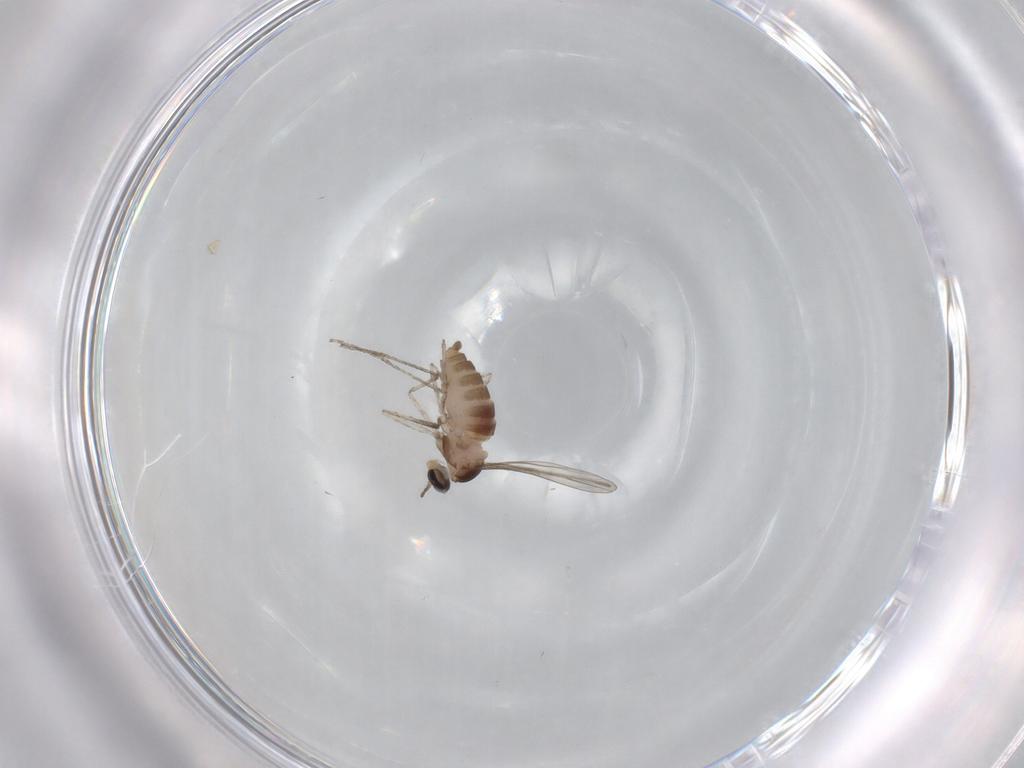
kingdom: Animalia
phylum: Arthropoda
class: Insecta
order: Diptera
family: Cecidomyiidae
